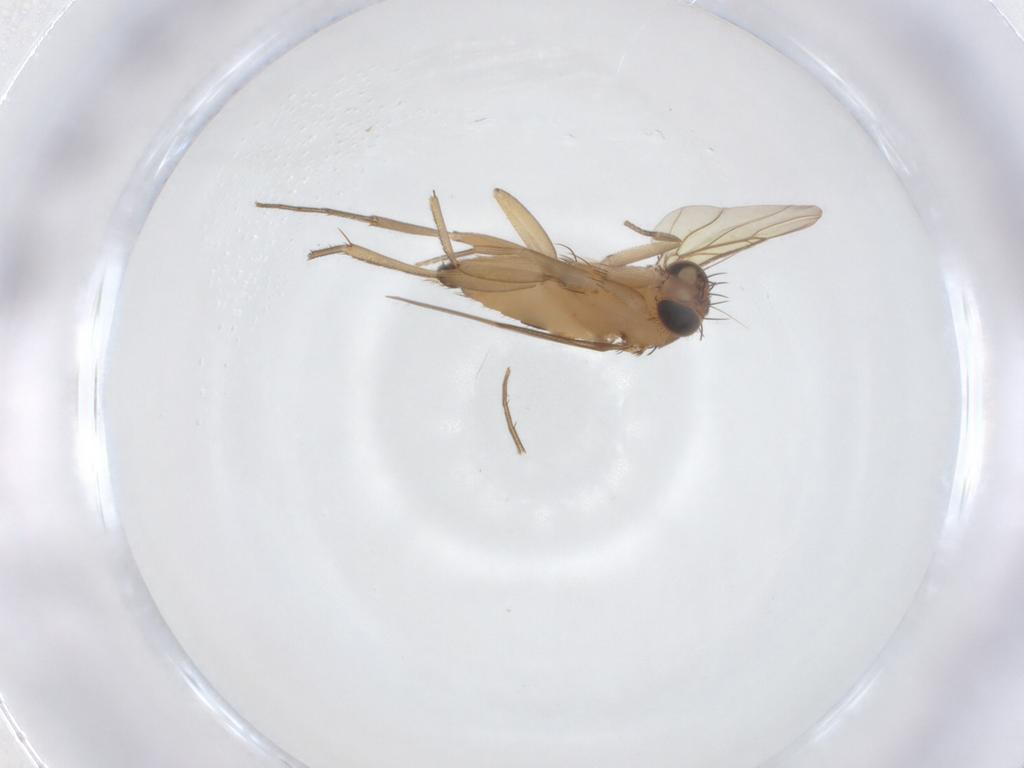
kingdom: Animalia
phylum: Arthropoda
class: Insecta
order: Diptera
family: Phoridae
